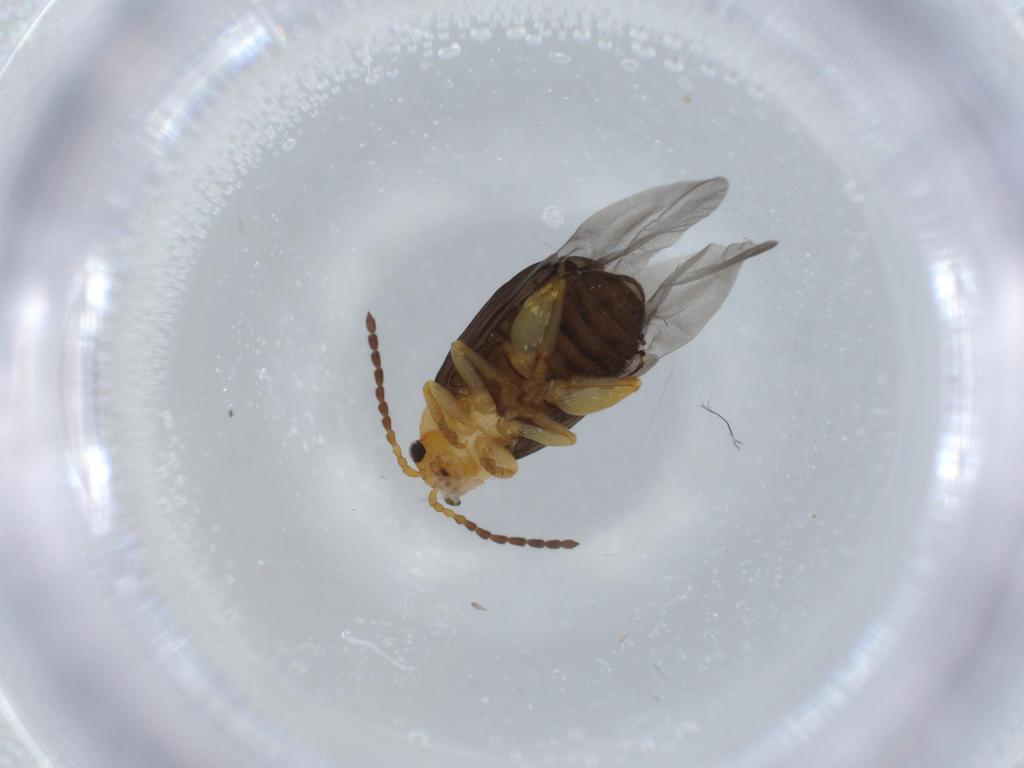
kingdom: Animalia
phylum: Arthropoda
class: Insecta
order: Coleoptera
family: Chrysomelidae
